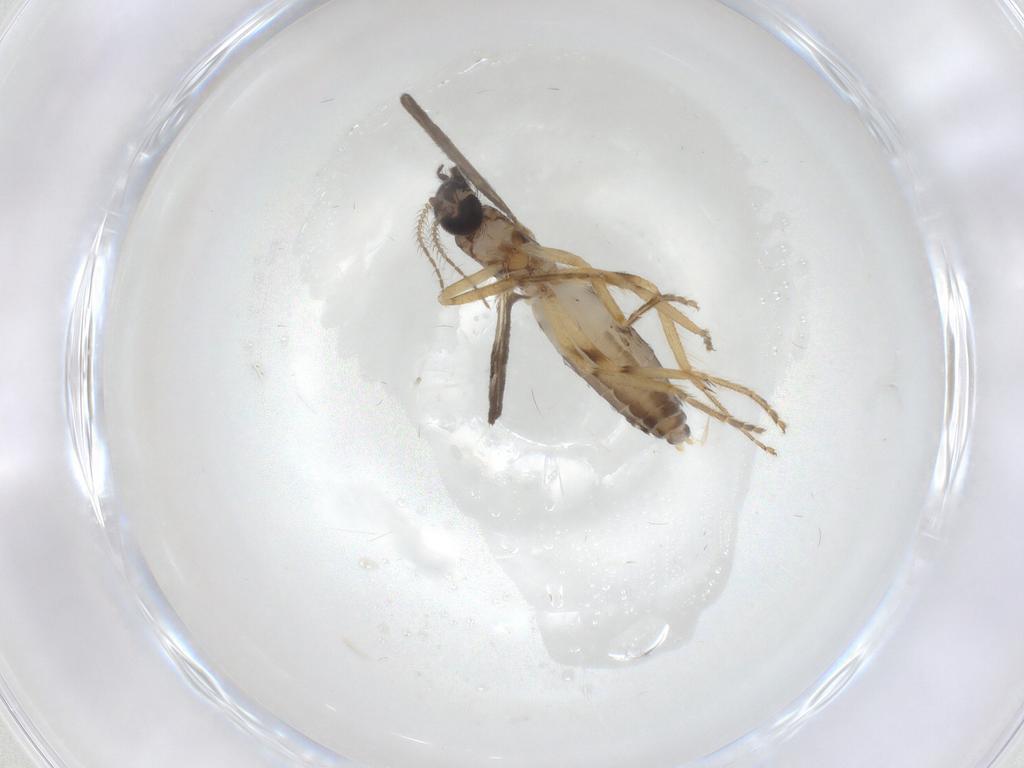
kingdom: Animalia
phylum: Arthropoda
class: Insecta
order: Diptera
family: Ceratopogonidae
